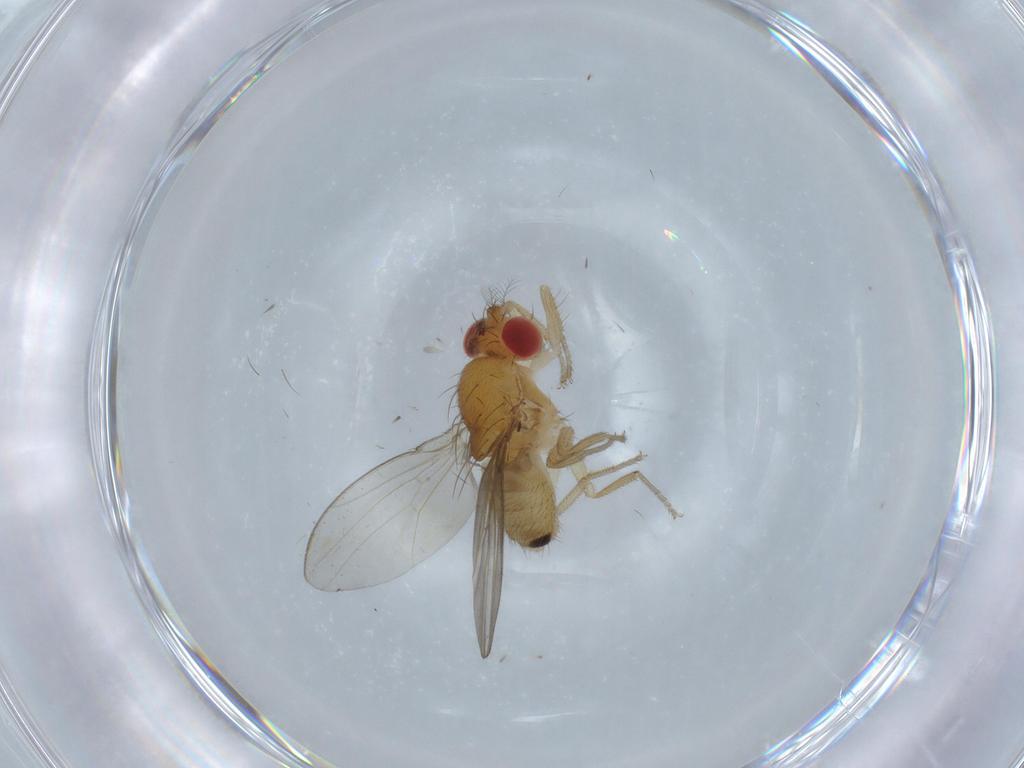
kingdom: Animalia
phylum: Arthropoda
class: Insecta
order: Diptera
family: Drosophilidae
